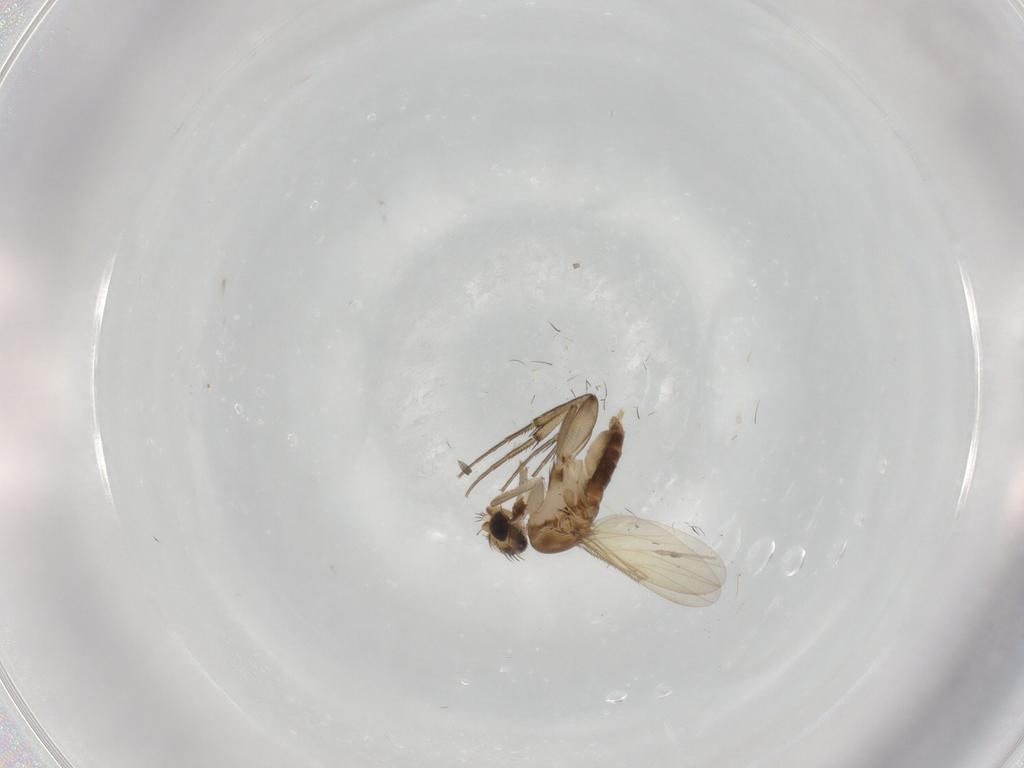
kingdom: Animalia
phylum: Arthropoda
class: Insecta
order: Diptera
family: Phoridae
